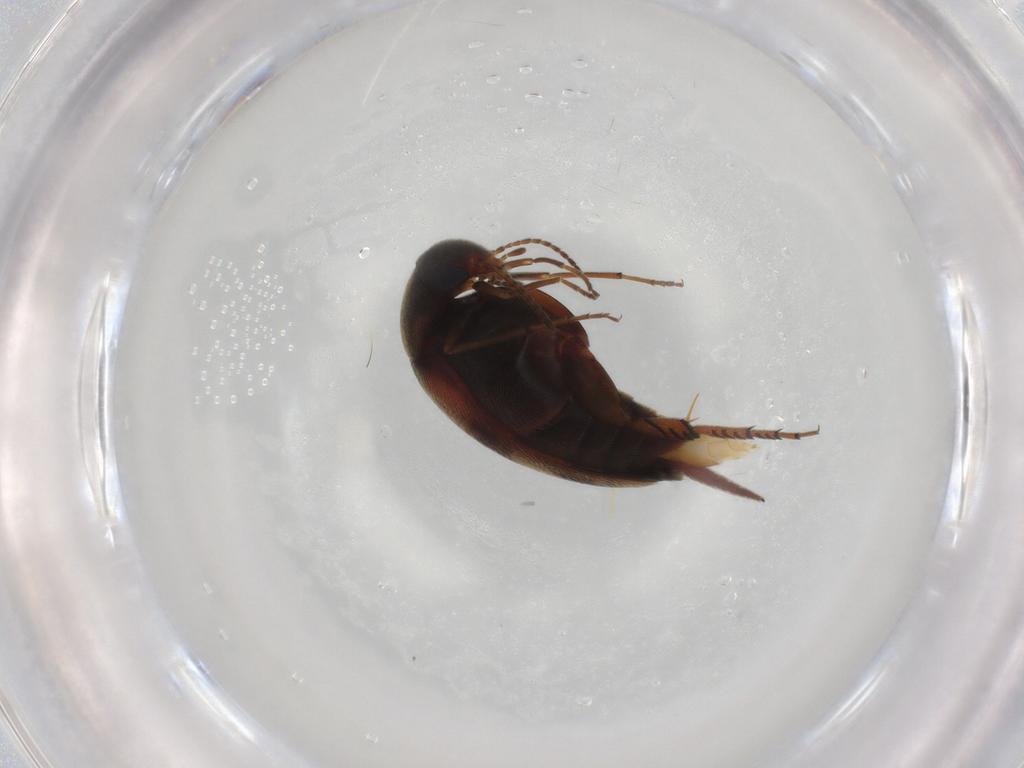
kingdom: Animalia
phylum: Arthropoda
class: Insecta
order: Coleoptera
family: Mordellidae
